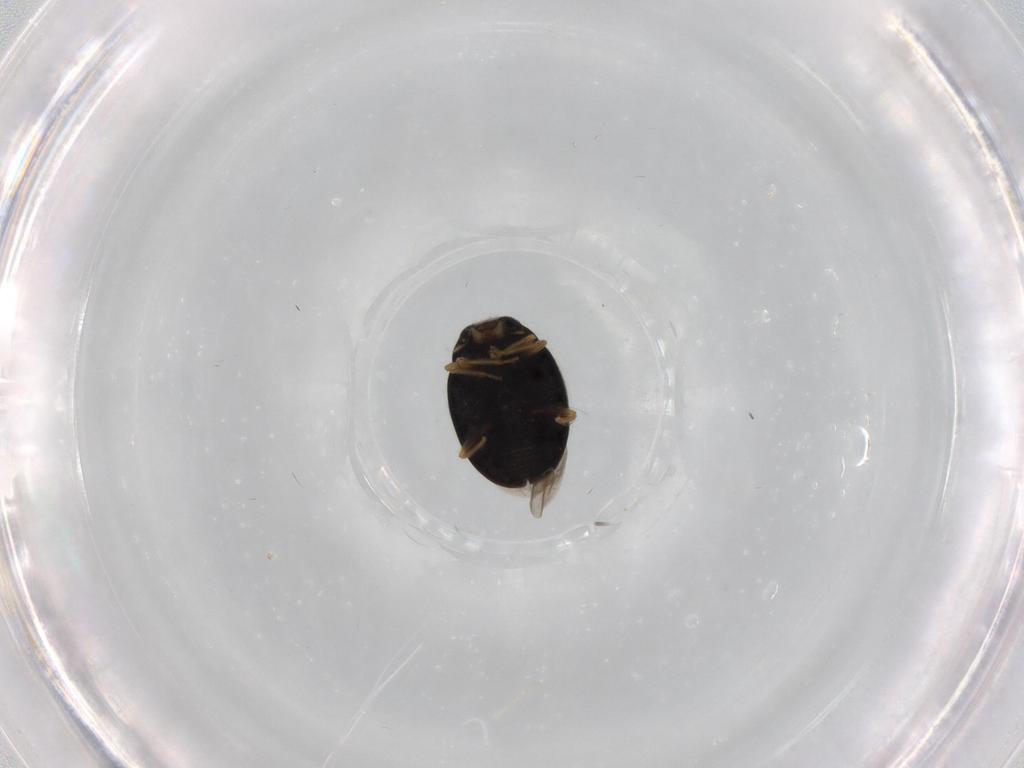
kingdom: Animalia
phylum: Arthropoda
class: Insecta
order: Coleoptera
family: Coccinellidae
